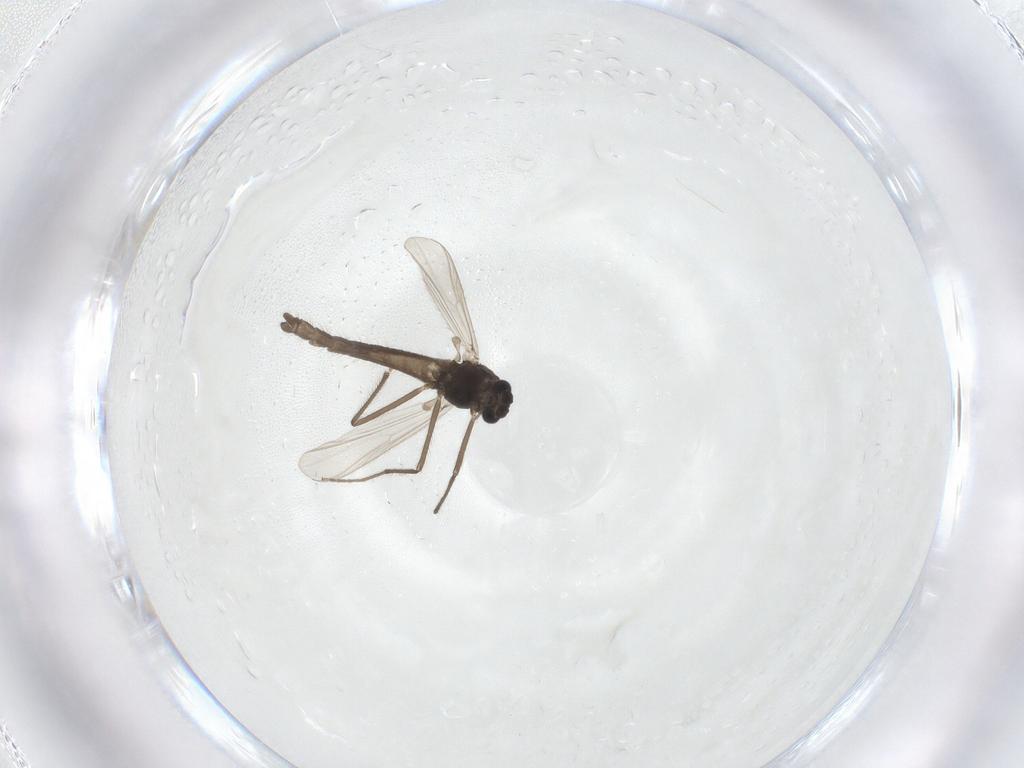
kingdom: Animalia
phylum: Arthropoda
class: Insecta
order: Diptera
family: Chironomidae
